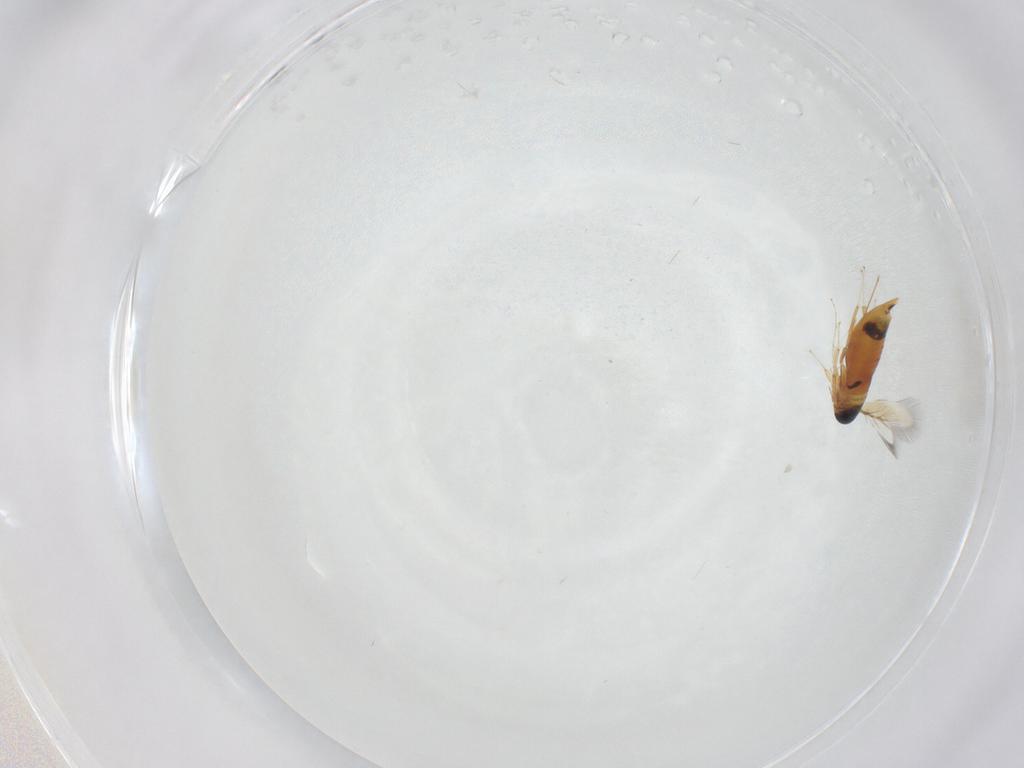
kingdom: Animalia
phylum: Arthropoda
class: Insecta
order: Hymenoptera
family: Signiphoridae
